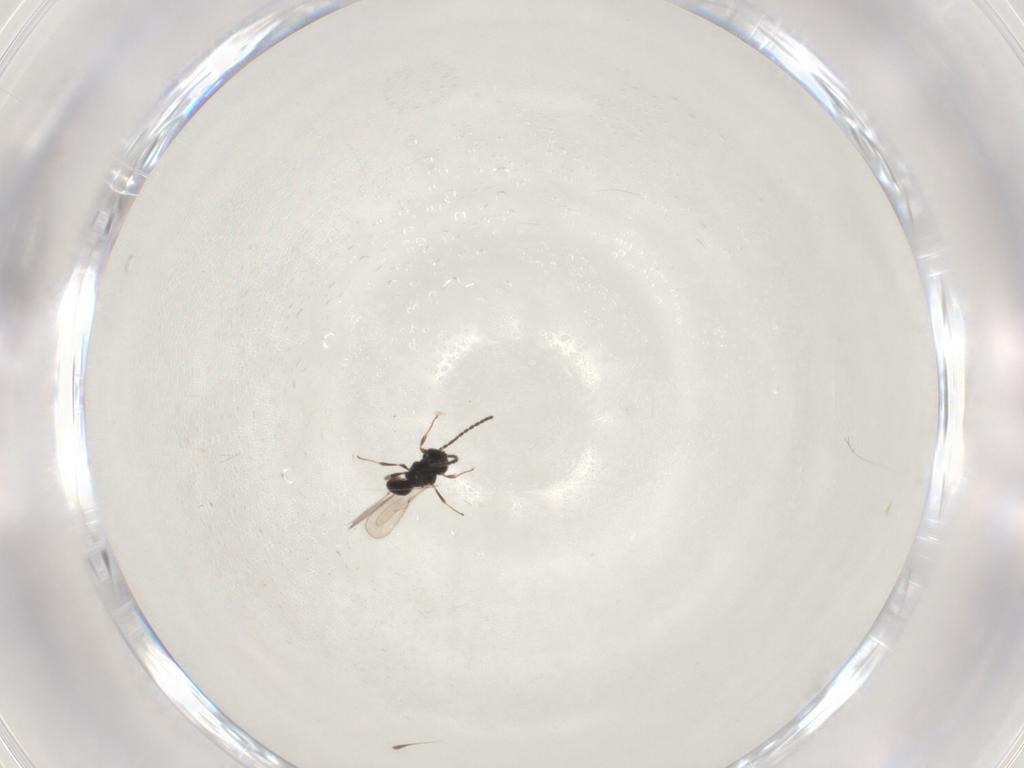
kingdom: Animalia
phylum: Arthropoda
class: Insecta
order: Hymenoptera
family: Scelionidae
